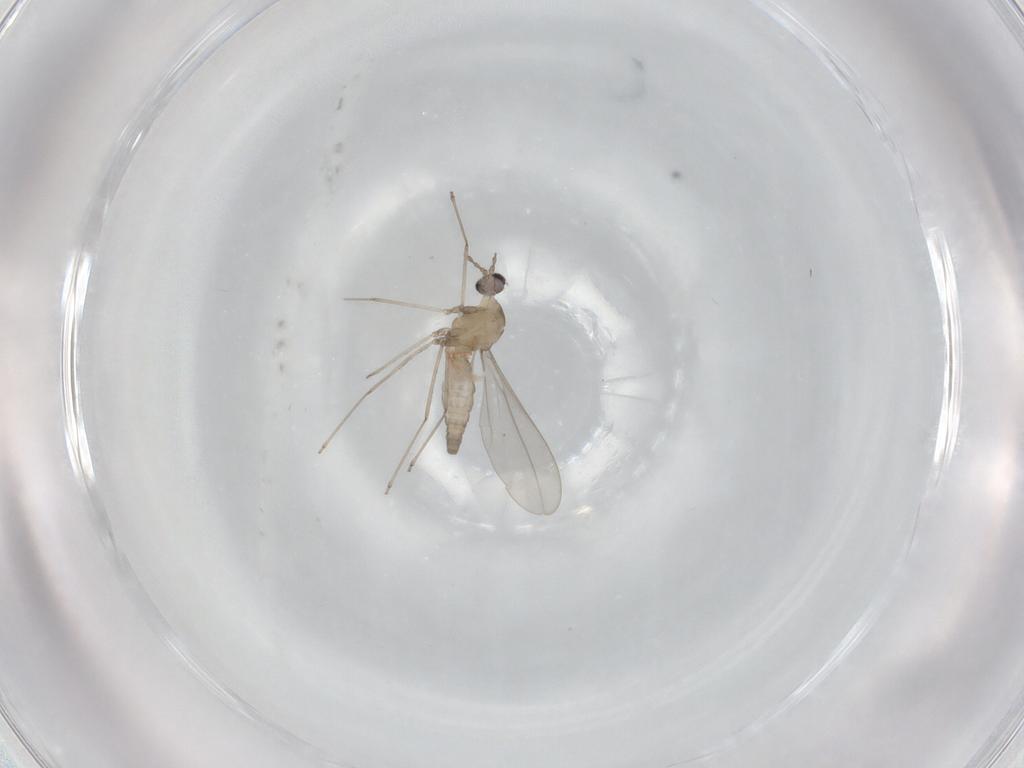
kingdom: Animalia
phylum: Arthropoda
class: Insecta
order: Diptera
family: Cecidomyiidae
